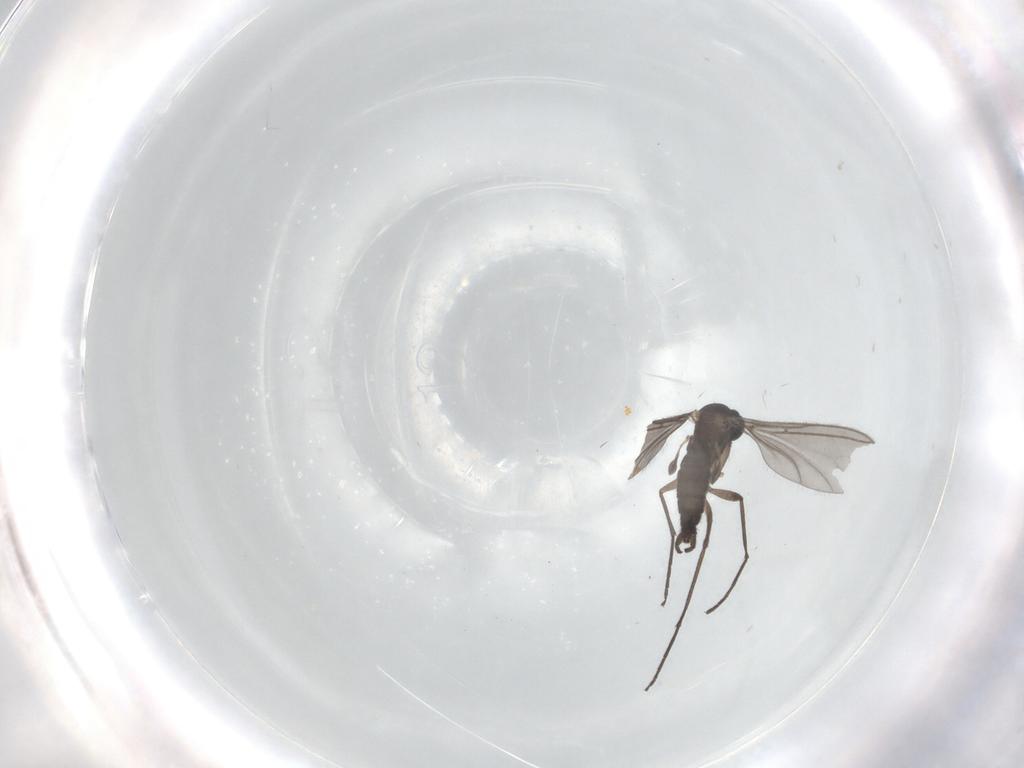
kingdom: Animalia
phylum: Arthropoda
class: Insecta
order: Diptera
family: Sciaridae
